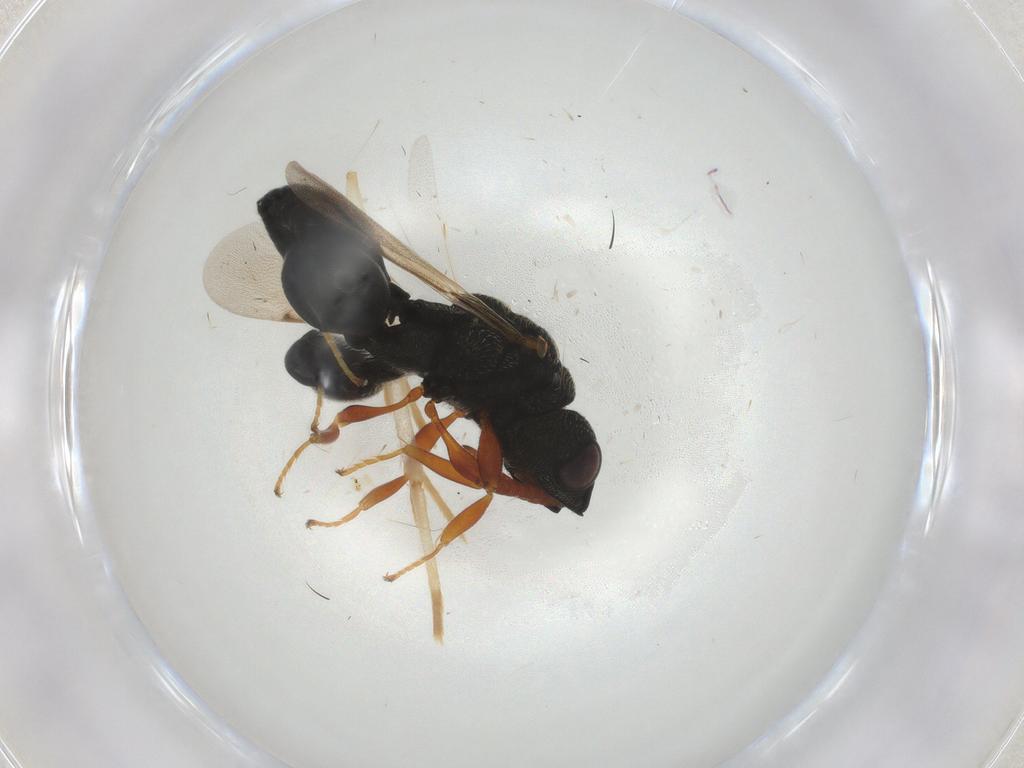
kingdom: Animalia
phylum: Arthropoda
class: Insecta
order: Hymenoptera
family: Chalcididae
